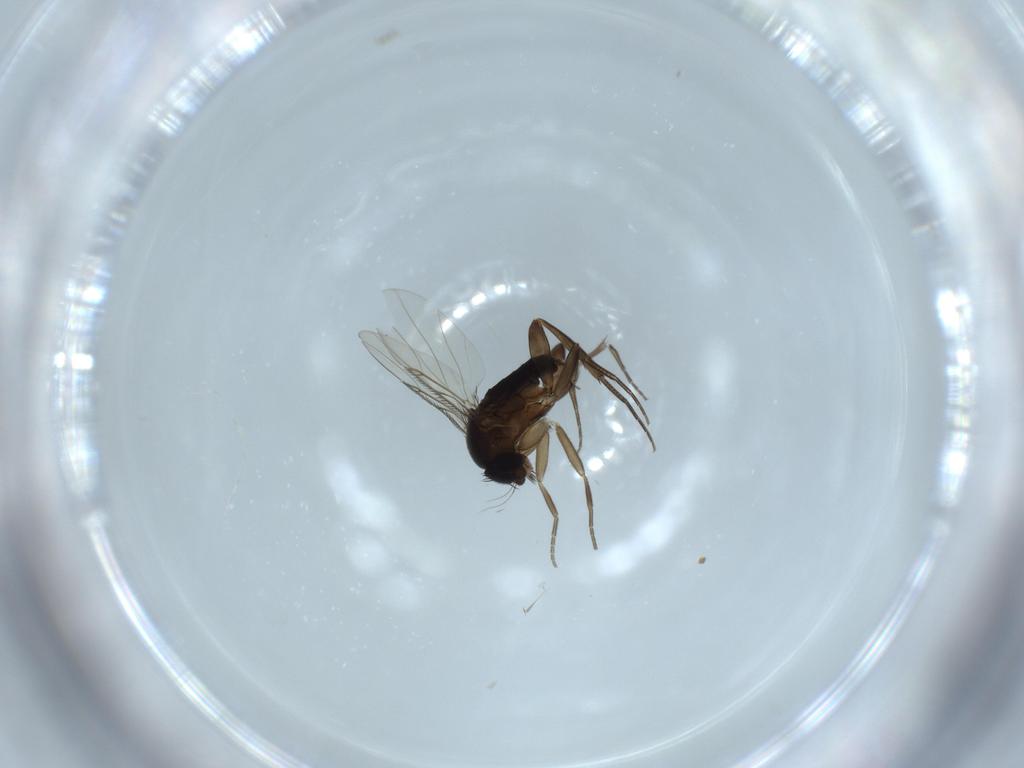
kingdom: Animalia
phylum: Arthropoda
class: Insecta
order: Diptera
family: Phoridae
